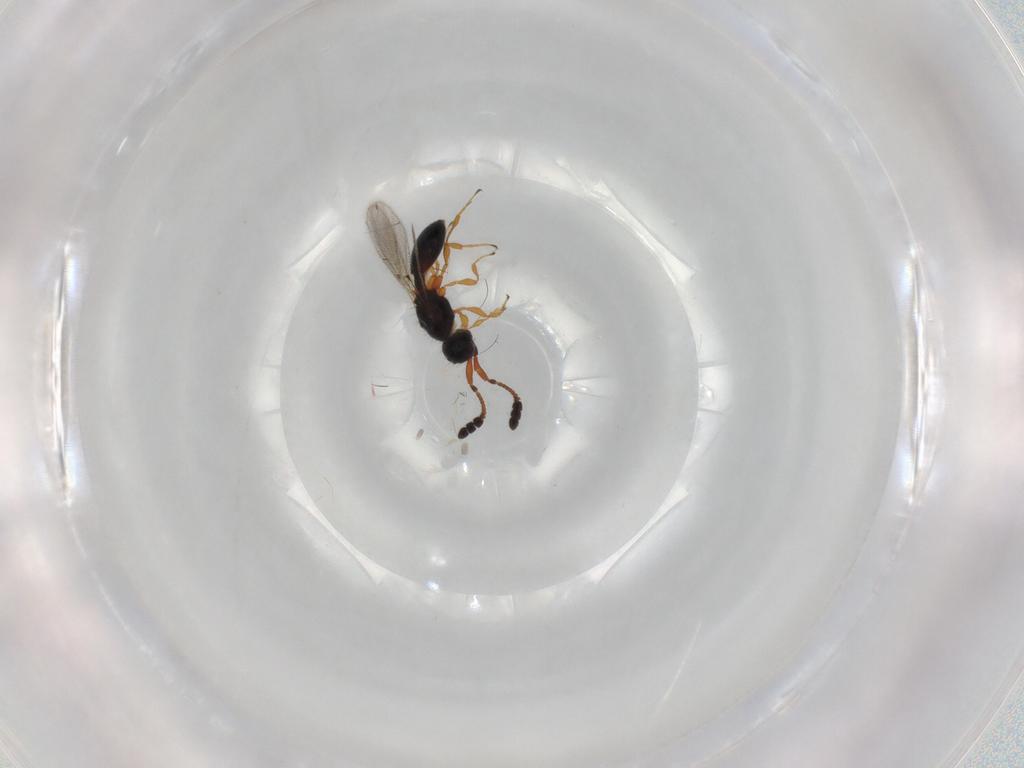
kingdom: Animalia
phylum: Arthropoda
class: Insecta
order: Hymenoptera
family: Diapriidae
